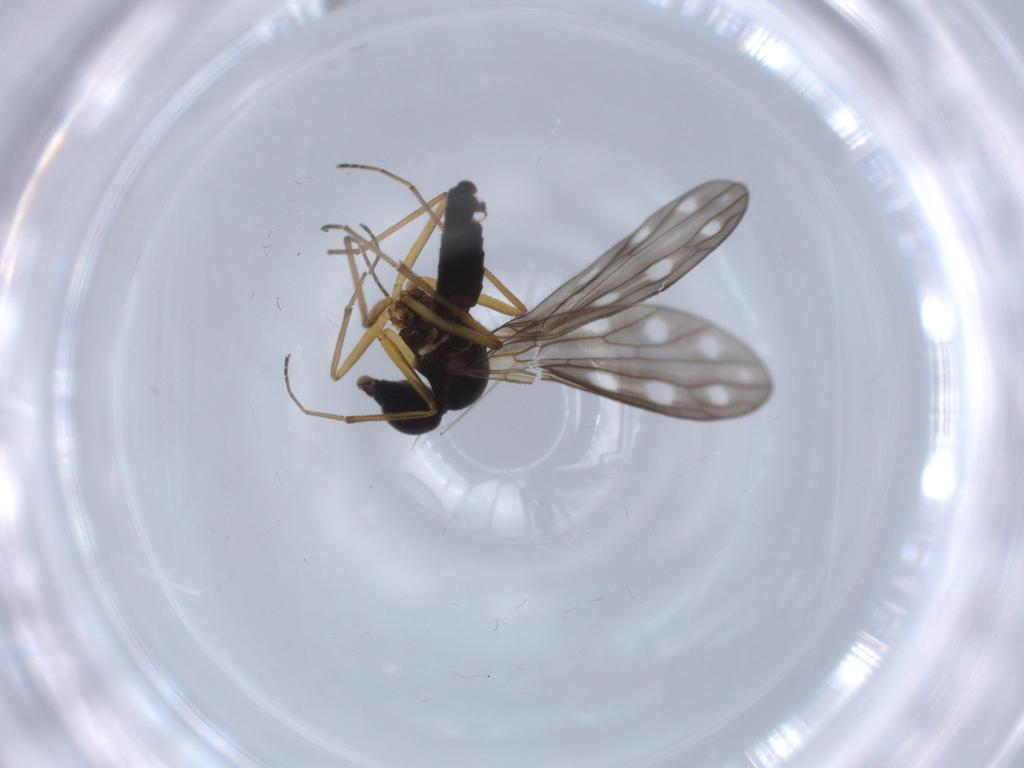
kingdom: Animalia
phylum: Arthropoda
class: Insecta
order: Diptera
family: Empididae
